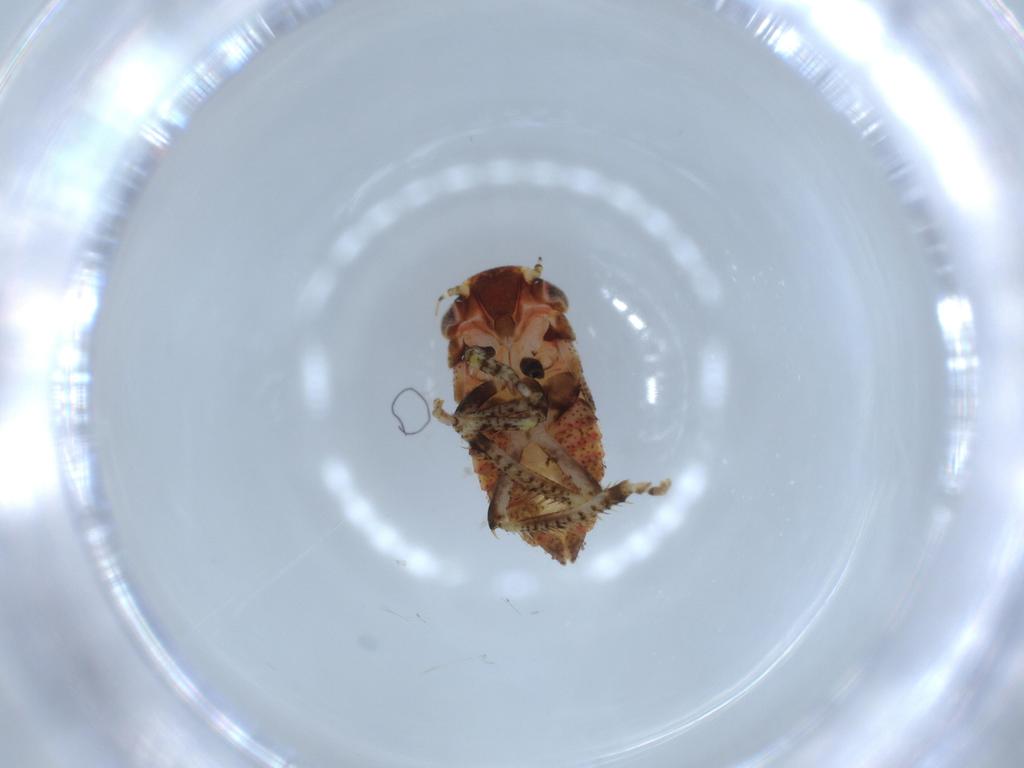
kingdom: Animalia
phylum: Arthropoda
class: Insecta
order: Hemiptera
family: Cicadellidae
